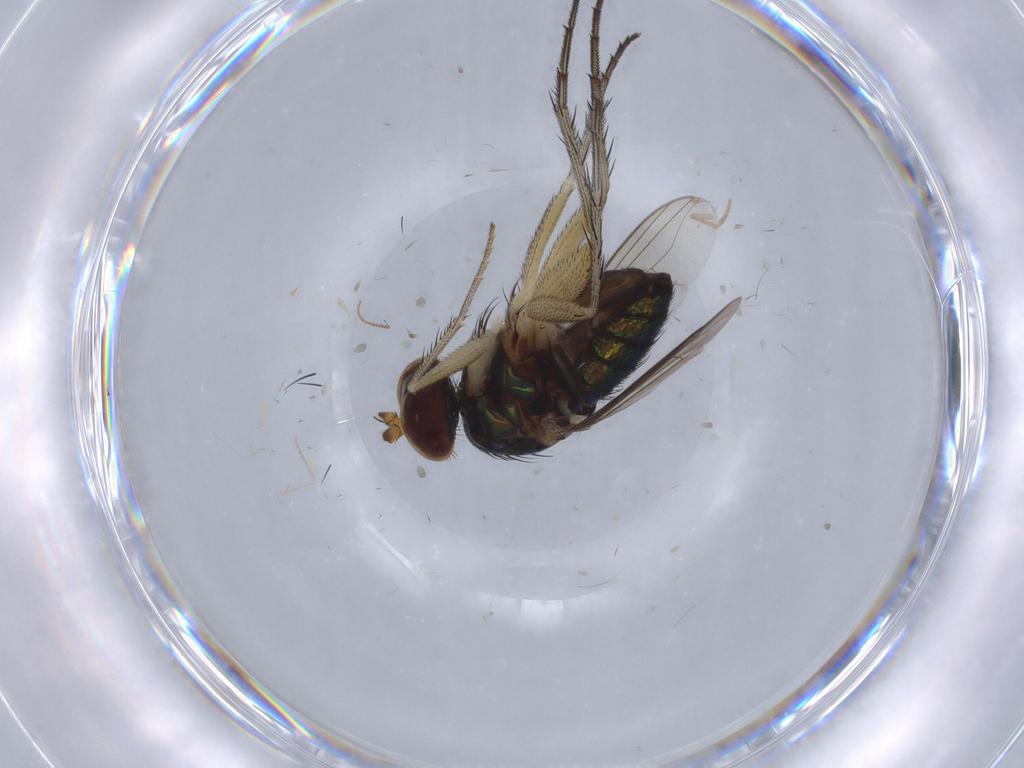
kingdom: Animalia
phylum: Arthropoda
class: Insecta
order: Diptera
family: Dolichopodidae
